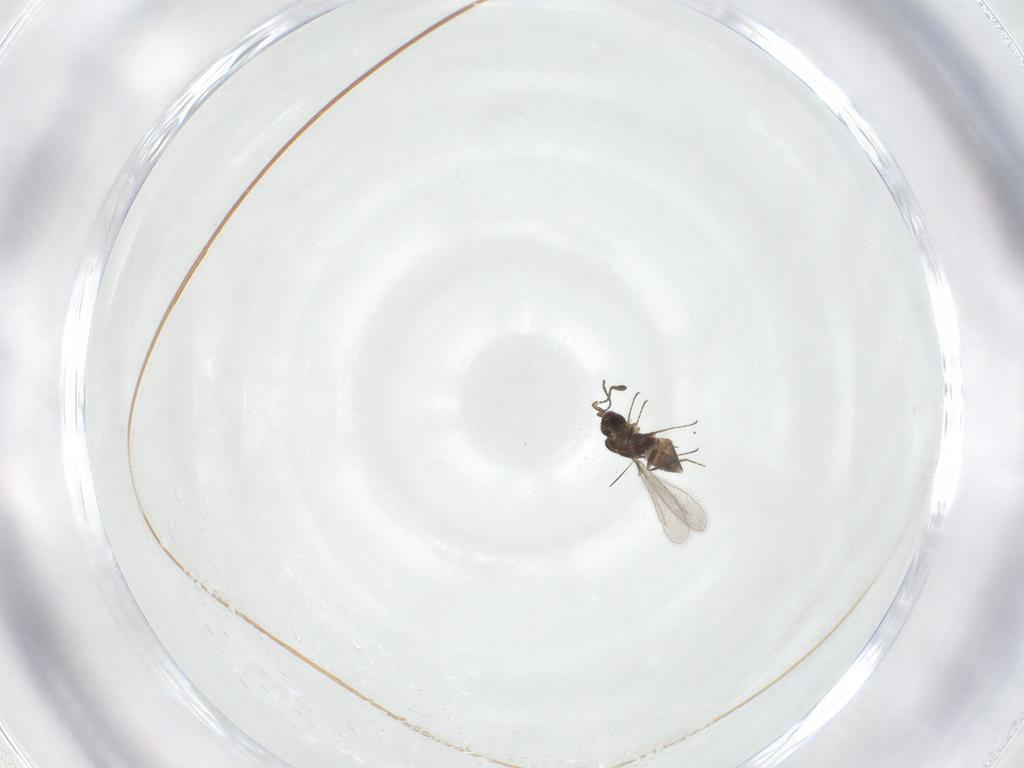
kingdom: Animalia
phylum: Arthropoda
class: Insecta
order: Hymenoptera
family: Mymaridae
